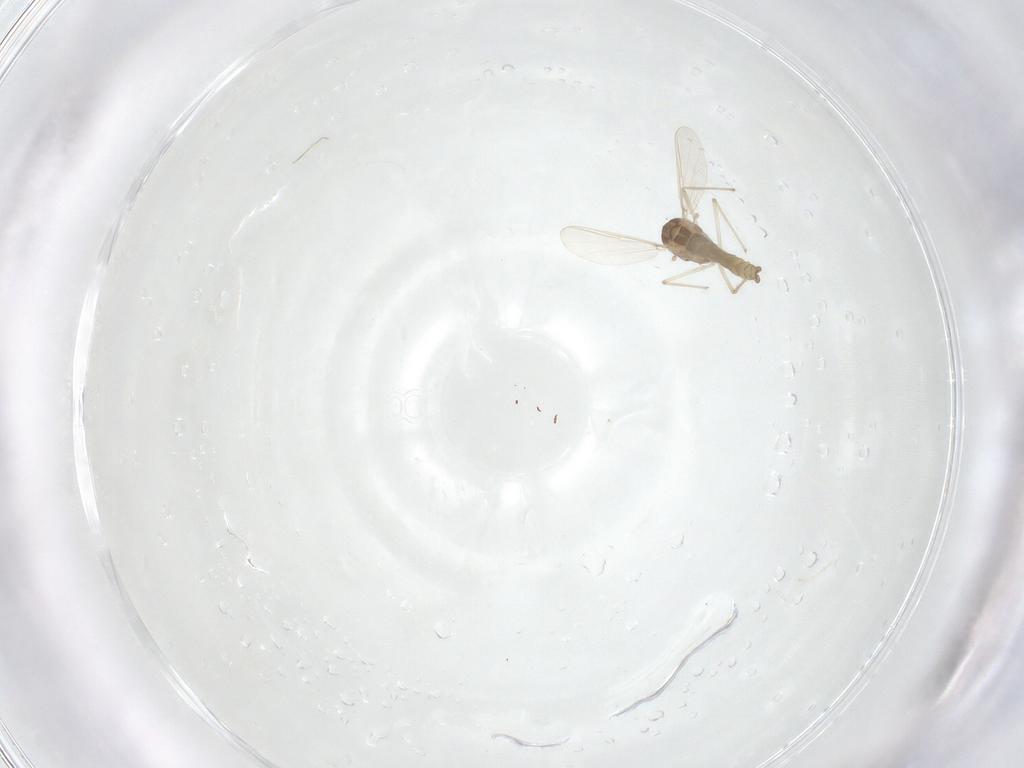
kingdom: Animalia
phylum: Arthropoda
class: Insecta
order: Diptera
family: Chironomidae
